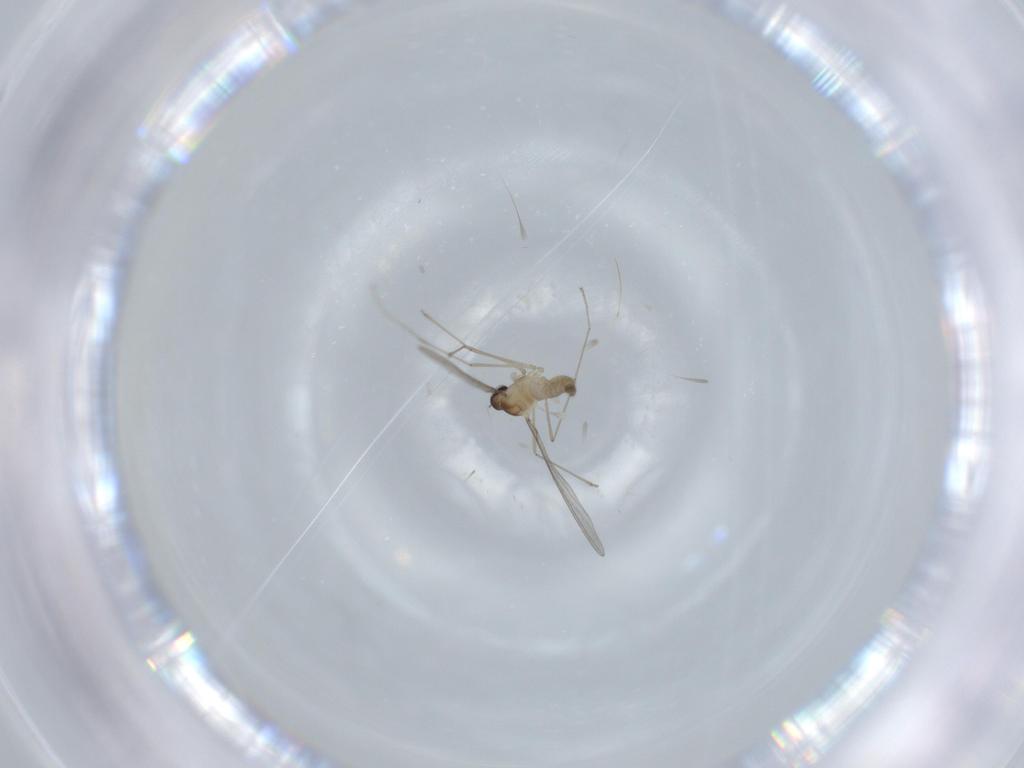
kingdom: Animalia
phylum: Arthropoda
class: Insecta
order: Diptera
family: Cecidomyiidae
